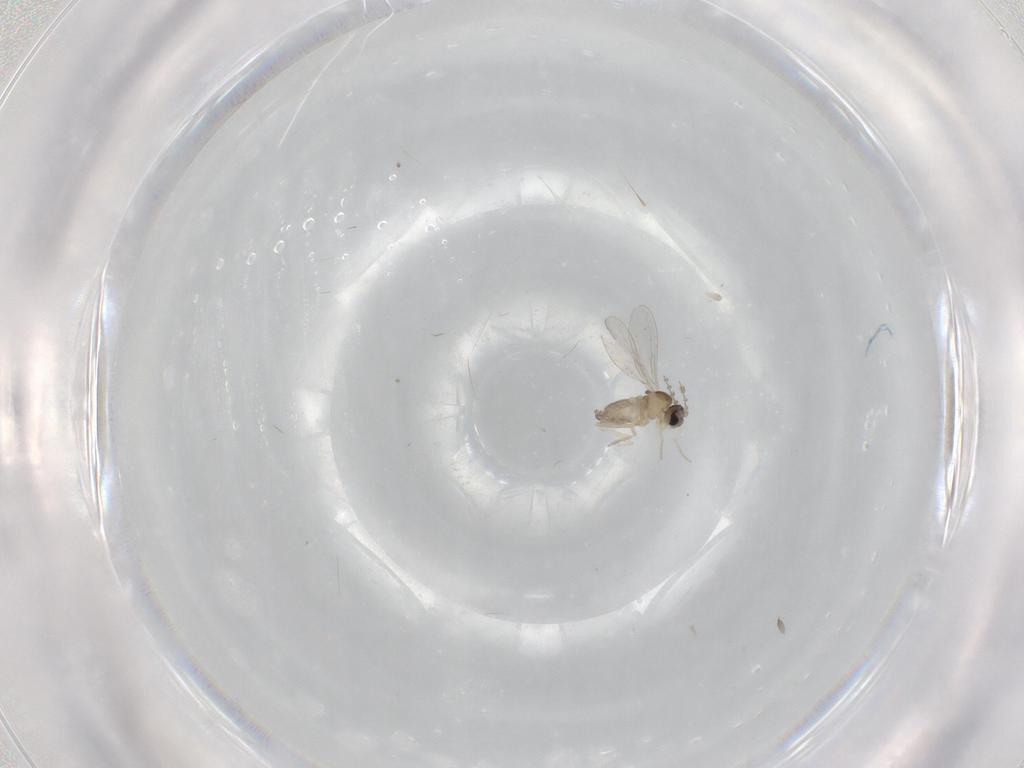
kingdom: Animalia
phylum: Arthropoda
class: Insecta
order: Diptera
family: Cecidomyiidae
